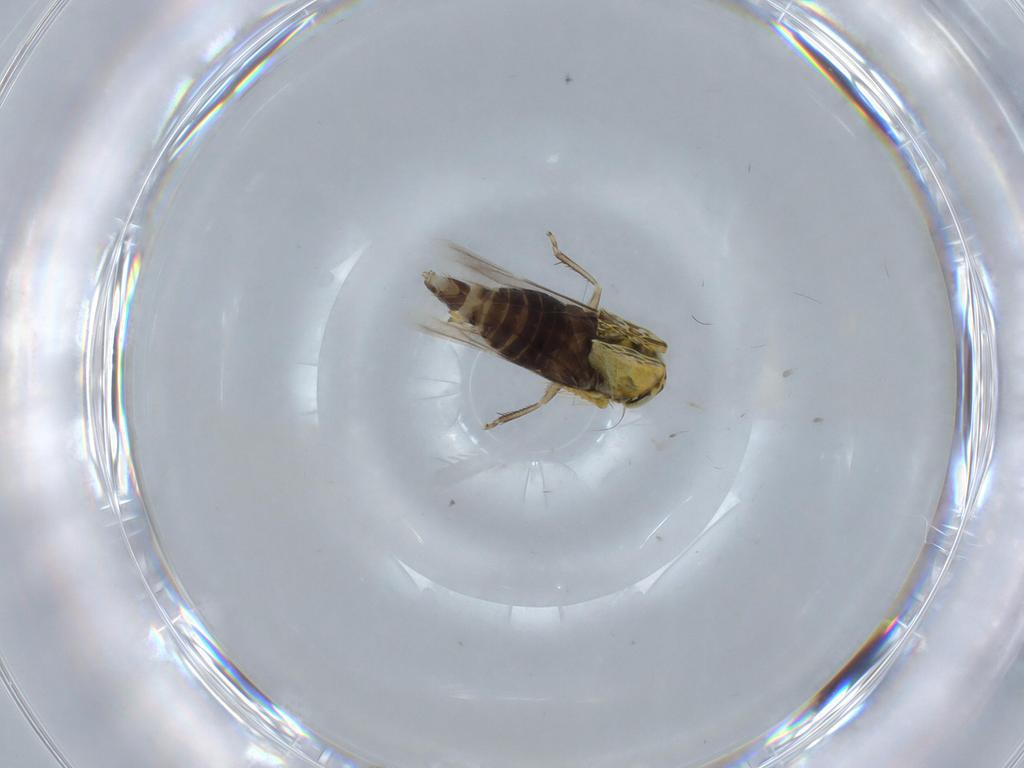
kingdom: Animalia
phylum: Arthropoda
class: Insecta
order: Hemiptera
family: Cicadellidae
